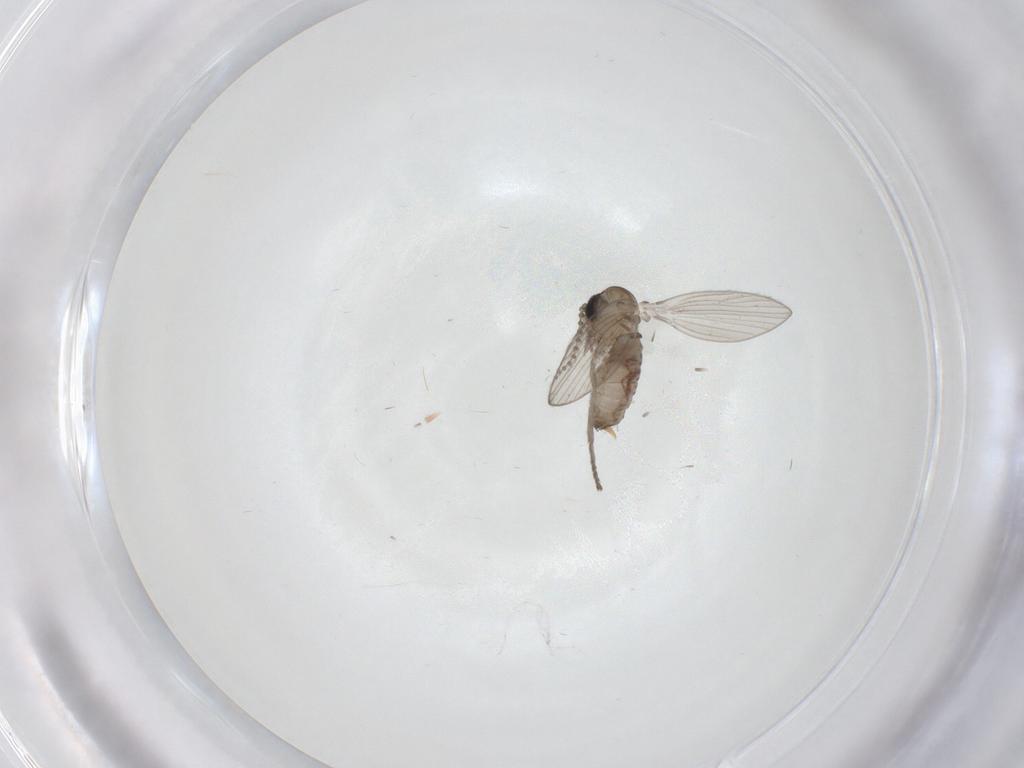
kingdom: Animalia
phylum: Arthropoda
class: Insecta
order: Diptera
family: Psychodidae
